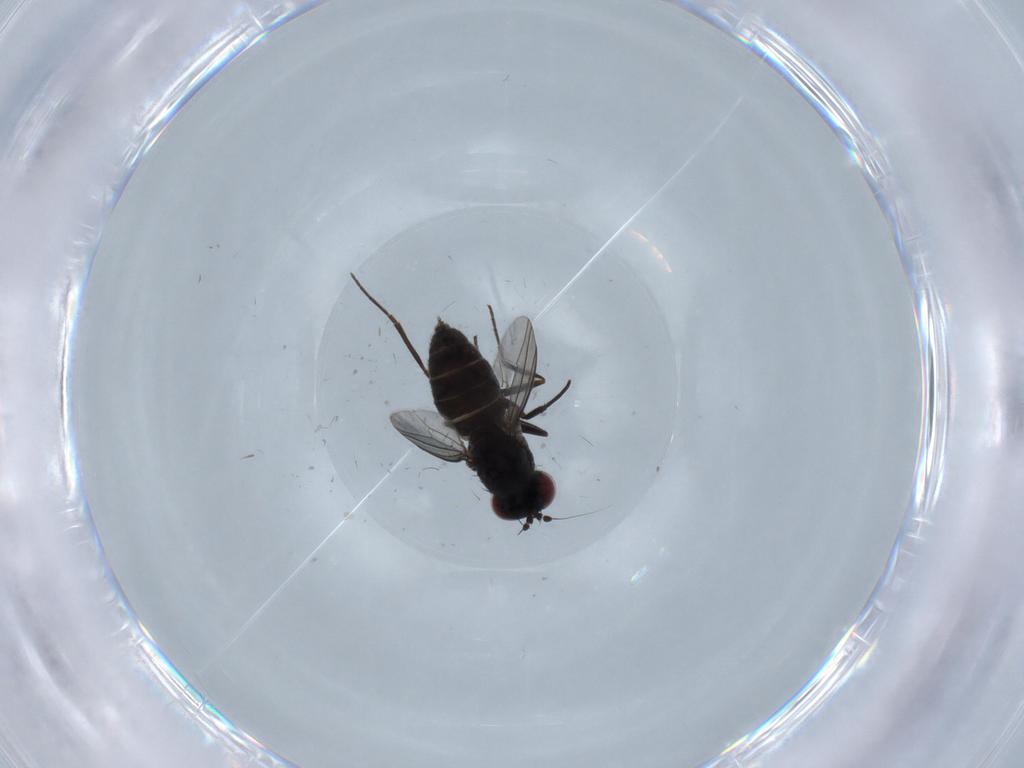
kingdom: Animalia
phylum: Arthropoda
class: Insecta
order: Diptera
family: Dolichopodidae
